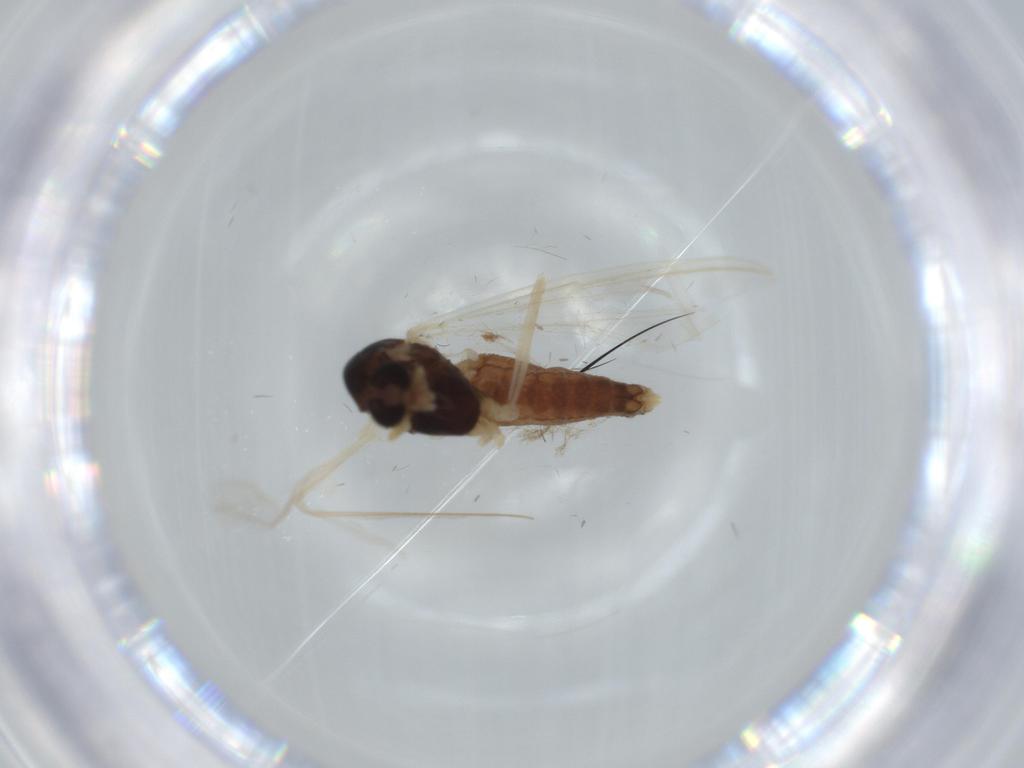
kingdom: Animalia
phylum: Arthropoda
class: Insecta
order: Diptera
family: Chironomidae
